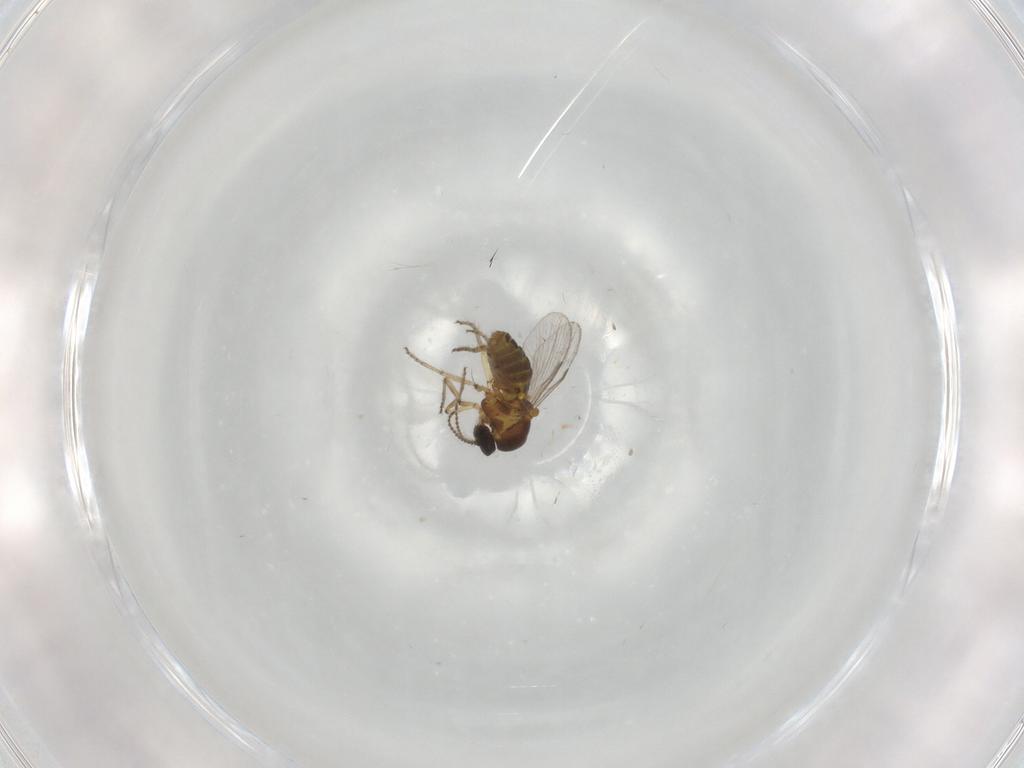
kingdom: Animalia
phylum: Arthropoda
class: Insecta
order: Diptera
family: Ceratopogonidae
